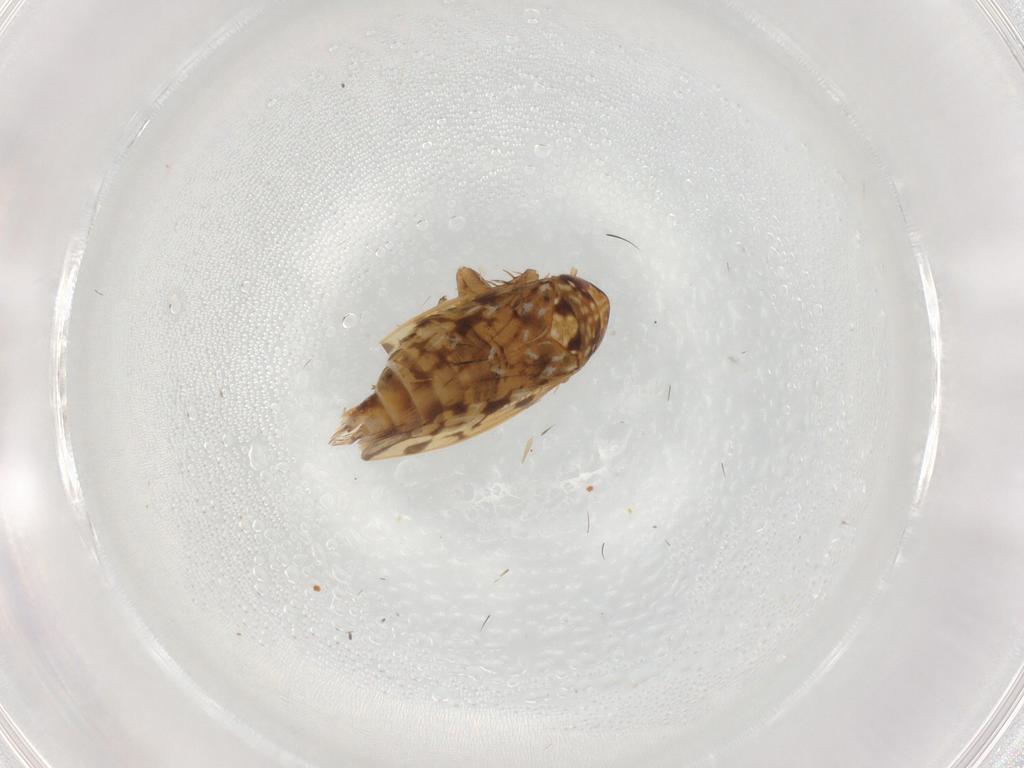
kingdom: Animalia
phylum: Arthropoda
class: Insecta
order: Hemiptera
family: Cicadellidae
